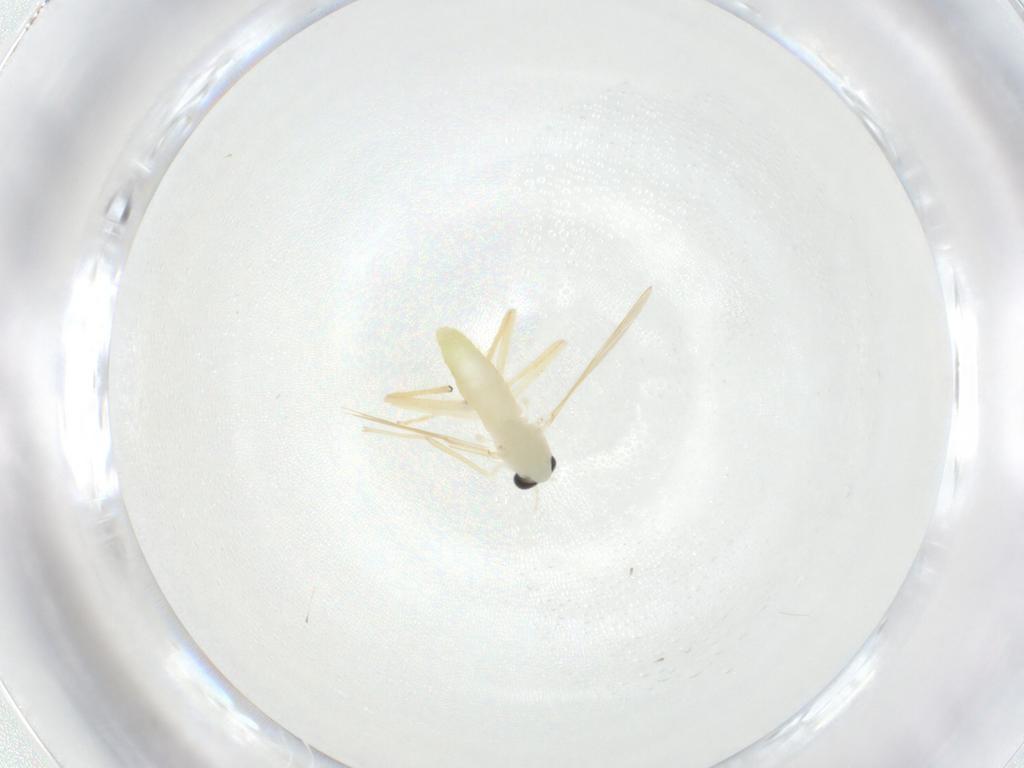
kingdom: Animalia
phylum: Arthropoda
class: Insecta
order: Diptera
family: Chironomidae
